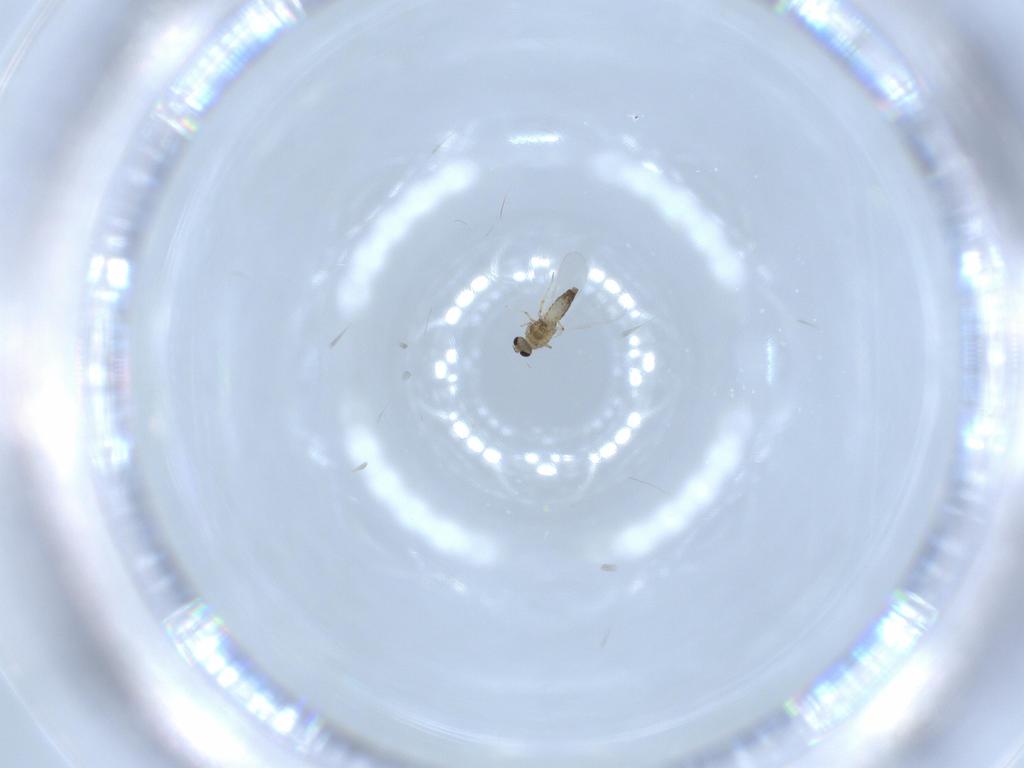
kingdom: Animalia
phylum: Arthropoda
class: Insecta
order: Diptera
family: Chironomidae
